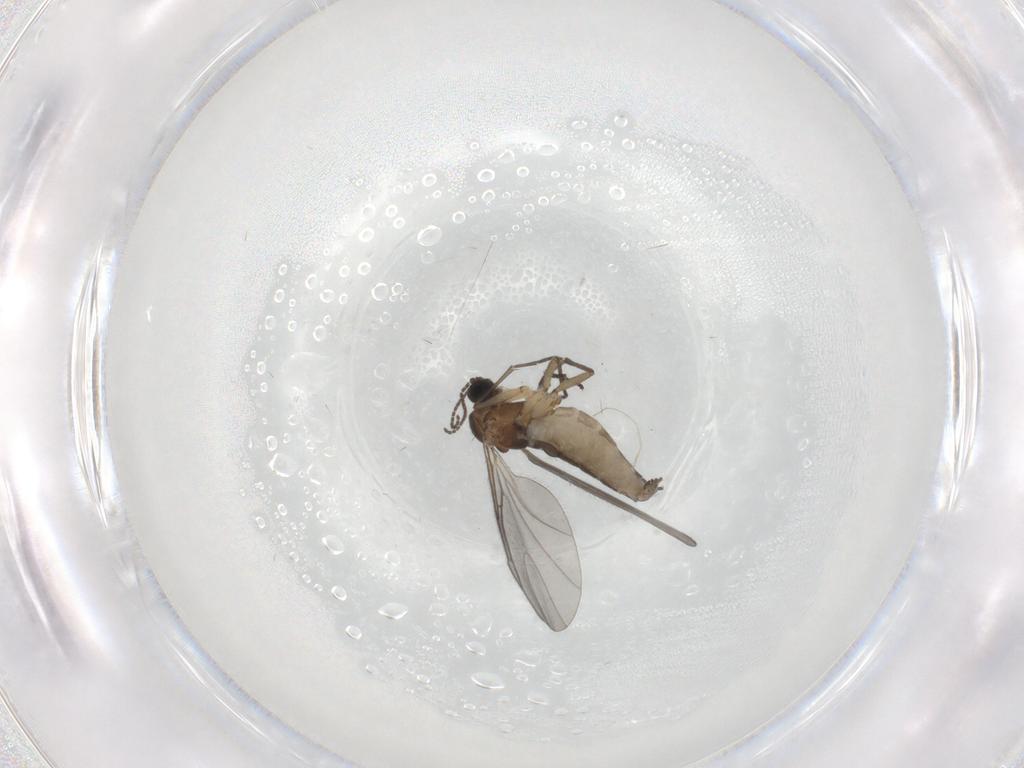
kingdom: Animalia
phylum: Arthropoda
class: Insecta
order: Diptera
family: Sciaridae
